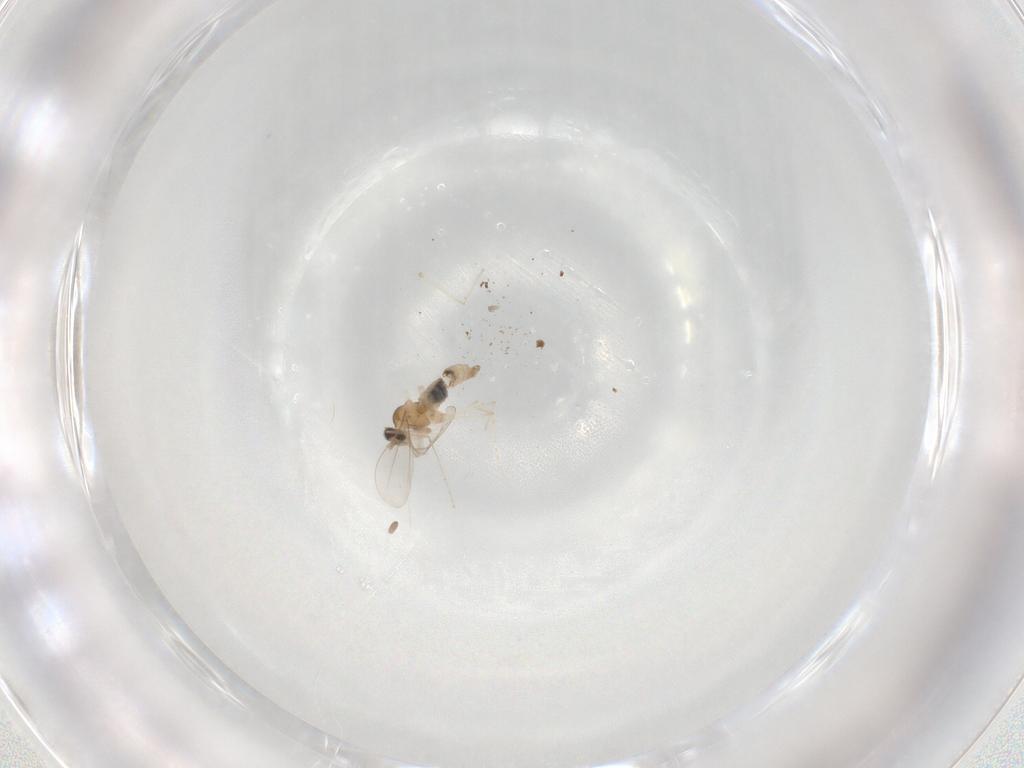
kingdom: Animalia
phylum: Arthropoda
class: Insecta
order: Diptera
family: Cecidomyiidae
